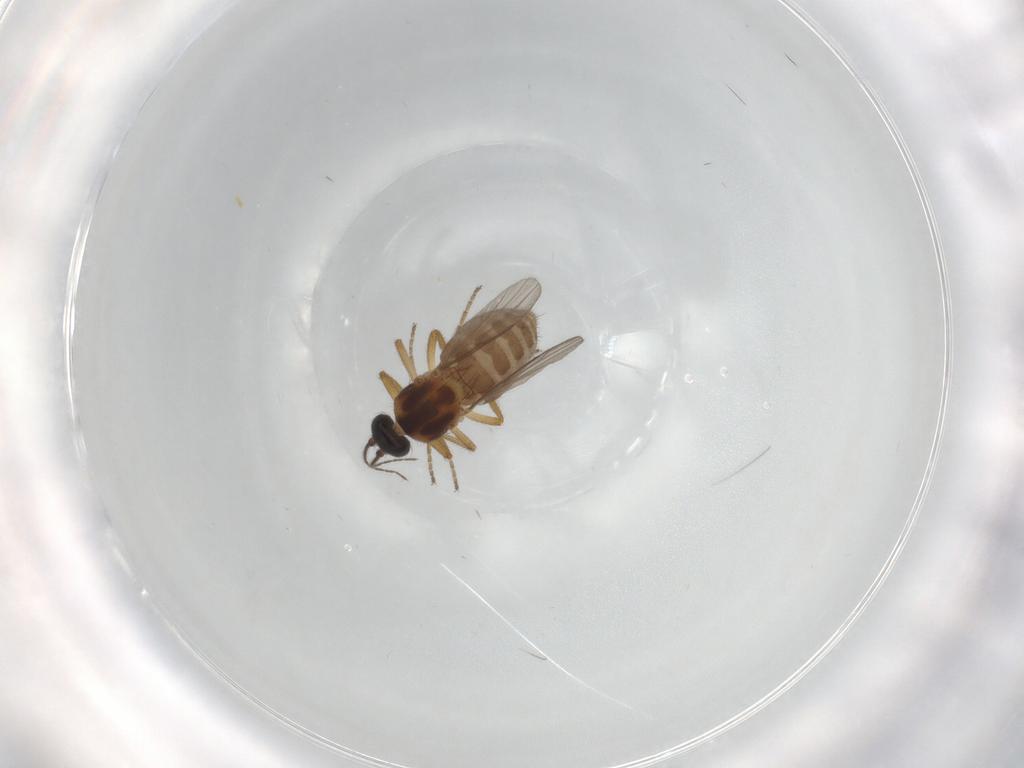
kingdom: Animalia
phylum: Arthropoda
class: Insecta
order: Diptera
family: Ceratopogonidae
